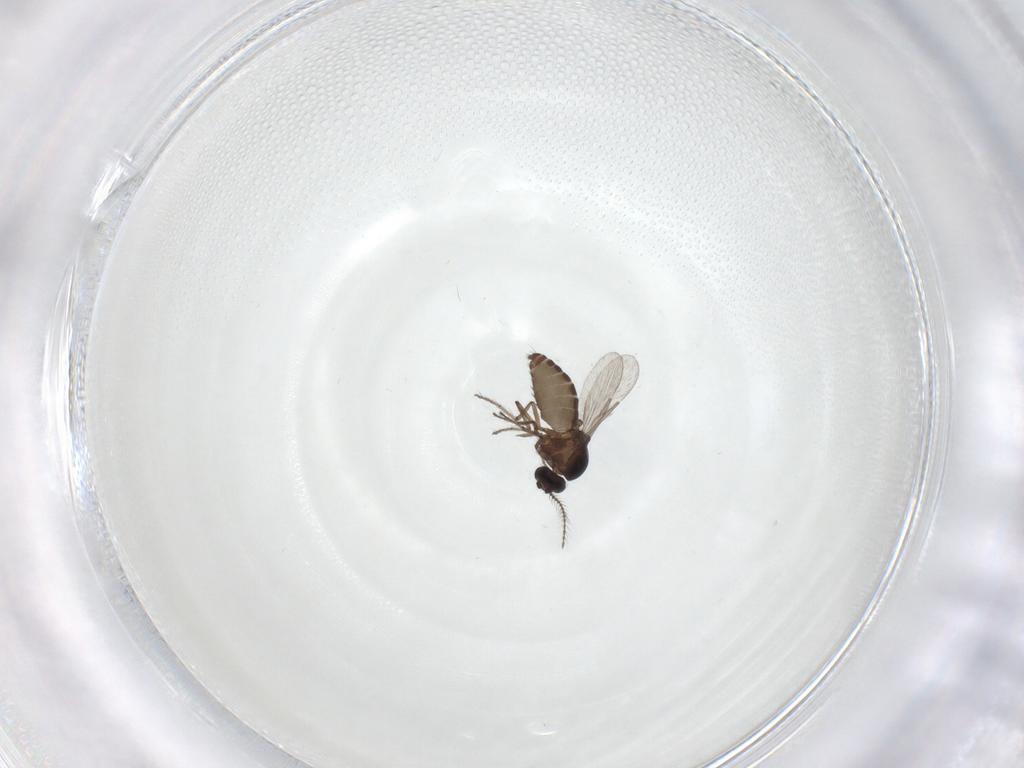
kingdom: Animalia
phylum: Arthropoda
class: Insecta
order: Diptera
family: Ceratopogonidae
